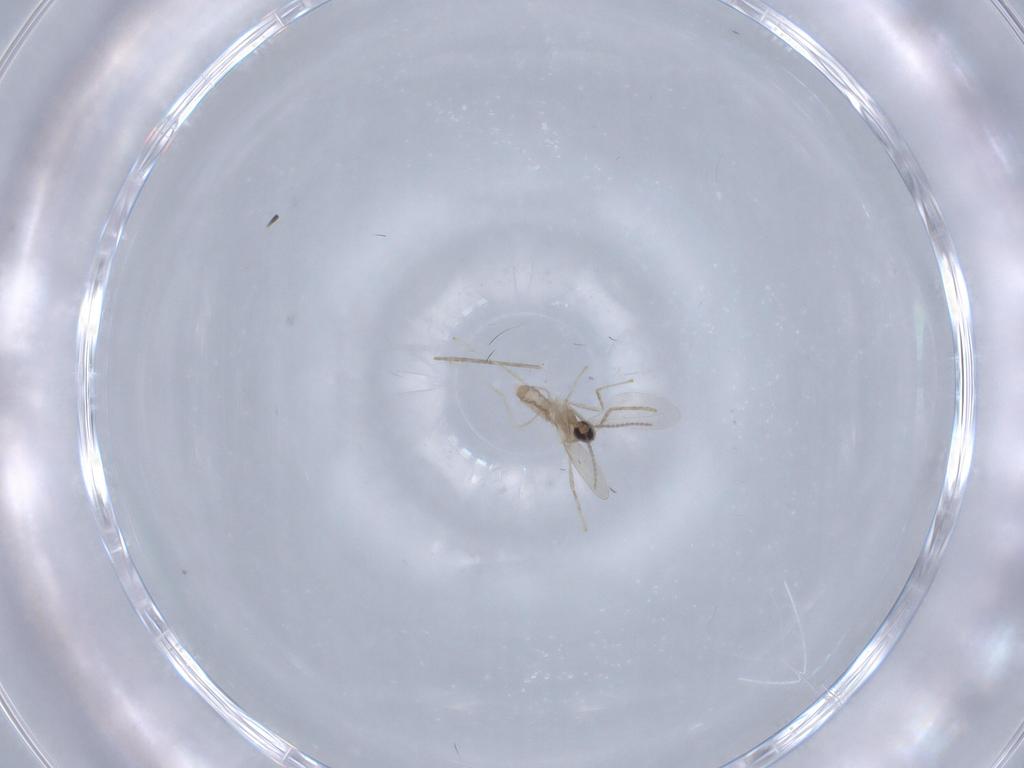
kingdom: Animalia
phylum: Arthropoda
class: Insecta
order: Diptera
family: Cecidomyiidae
